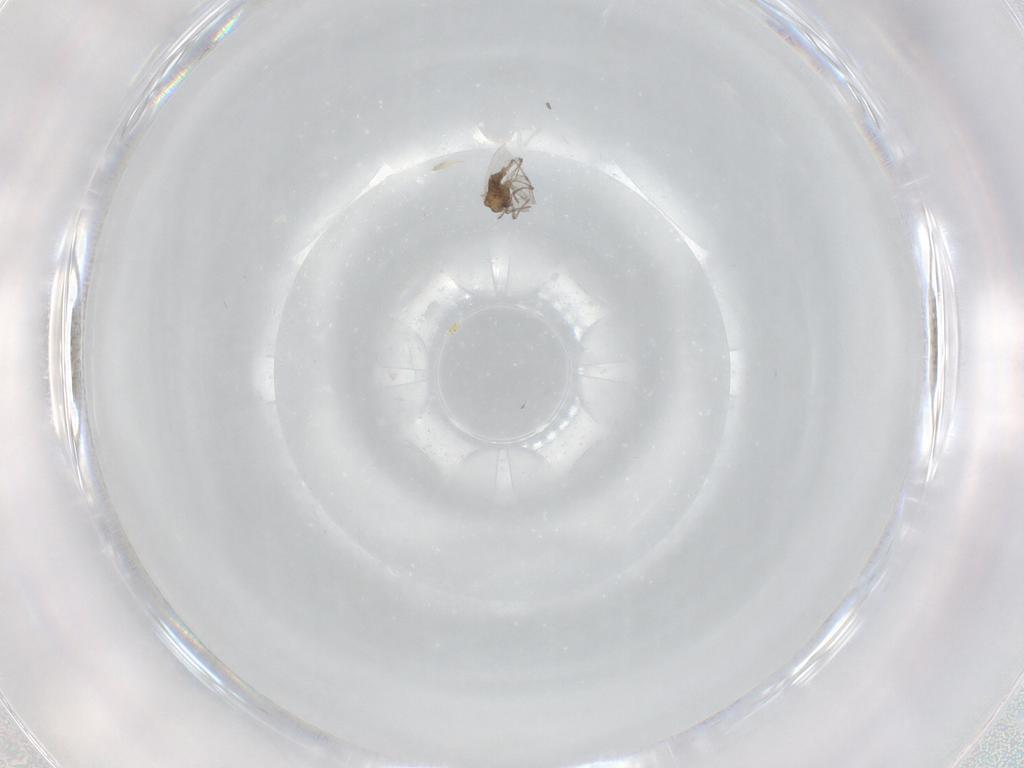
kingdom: Animalia
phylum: Arthropoda
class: Insecta
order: Diptera
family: Chironomidae
